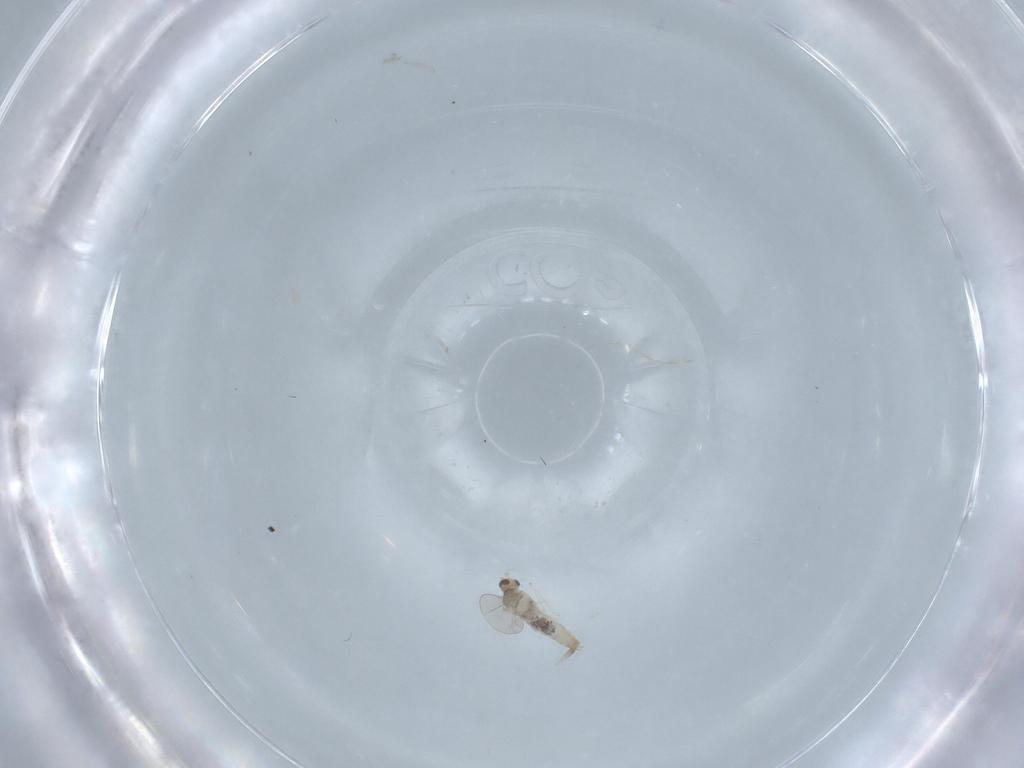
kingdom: Animalia
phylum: Arthropoda
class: Insecta
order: Diptera
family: Cecidomyiidae
